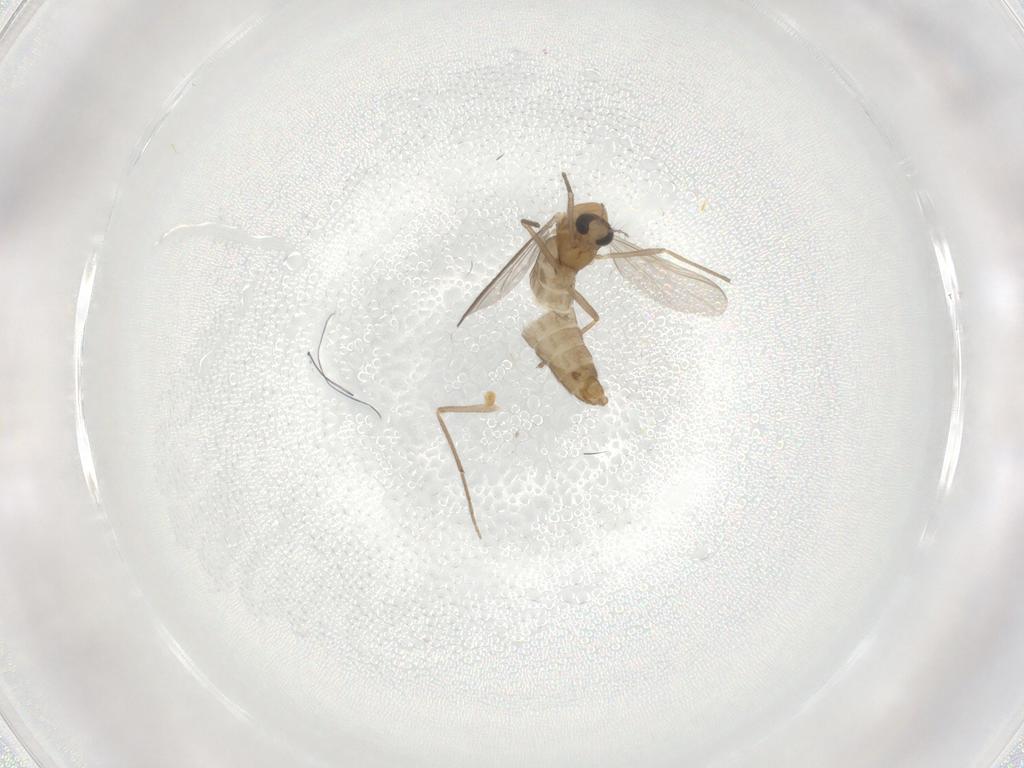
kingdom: Animalia
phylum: Arthropoda
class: Insecta
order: Diptera
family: Chironomidae
